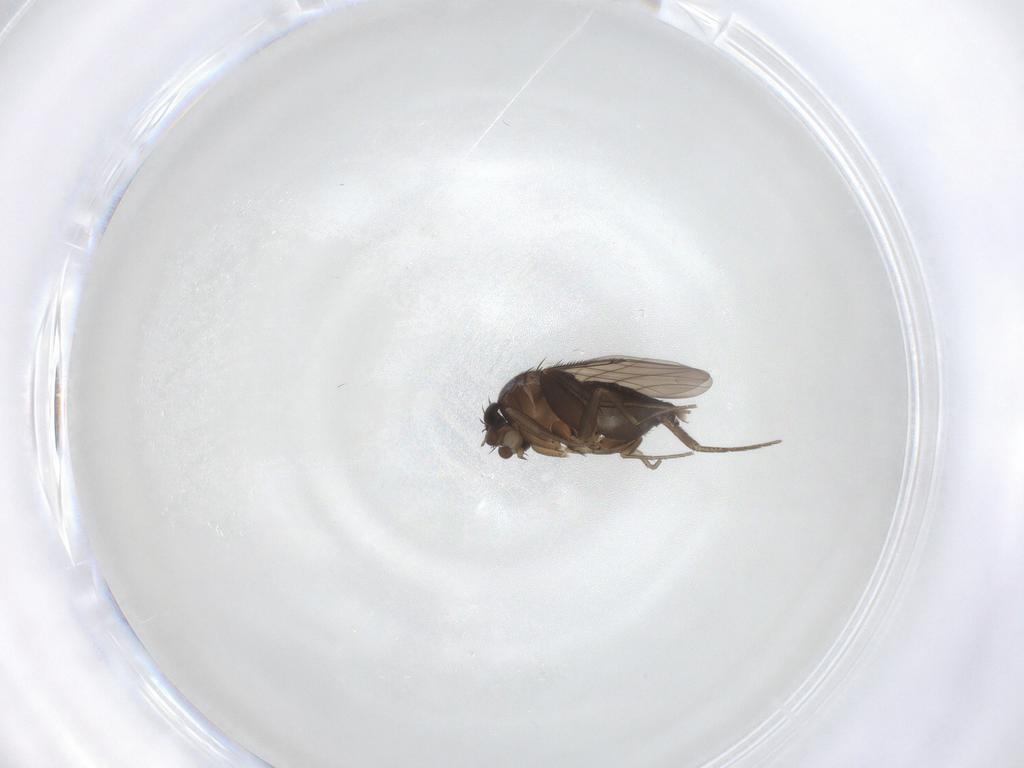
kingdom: Animalia
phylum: Arthropoda
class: Insecta
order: Diptera
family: Phoridae
